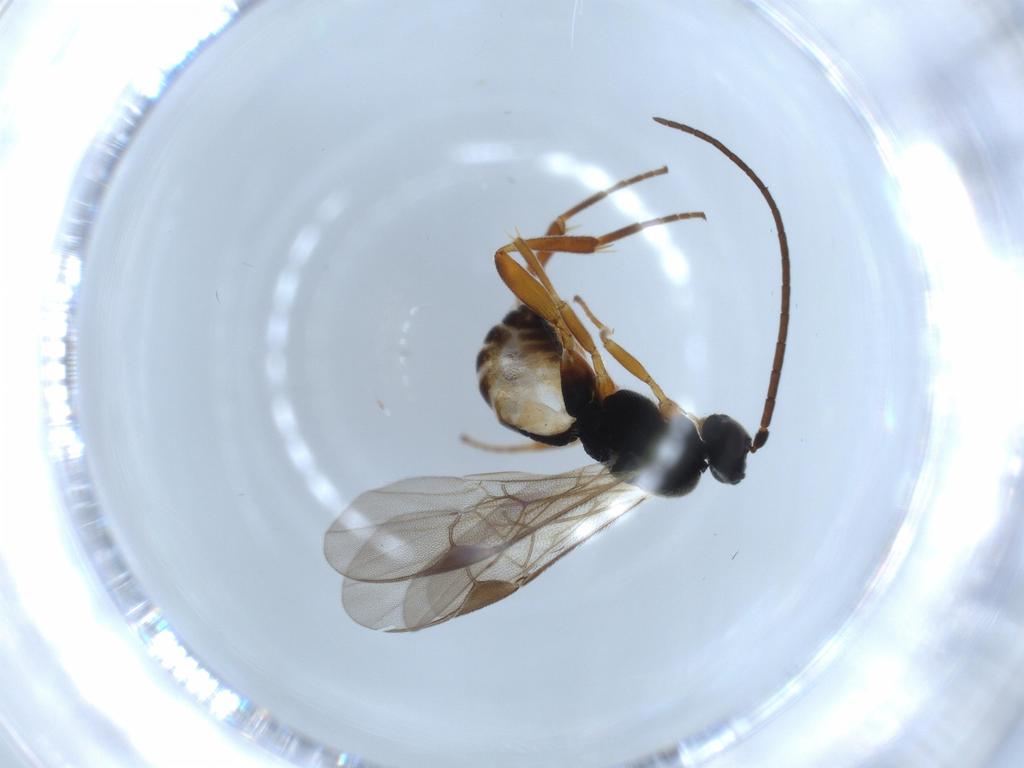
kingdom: Animalia
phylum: Arthropoda
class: Insecta
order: Hymenoptera
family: Braconidae
